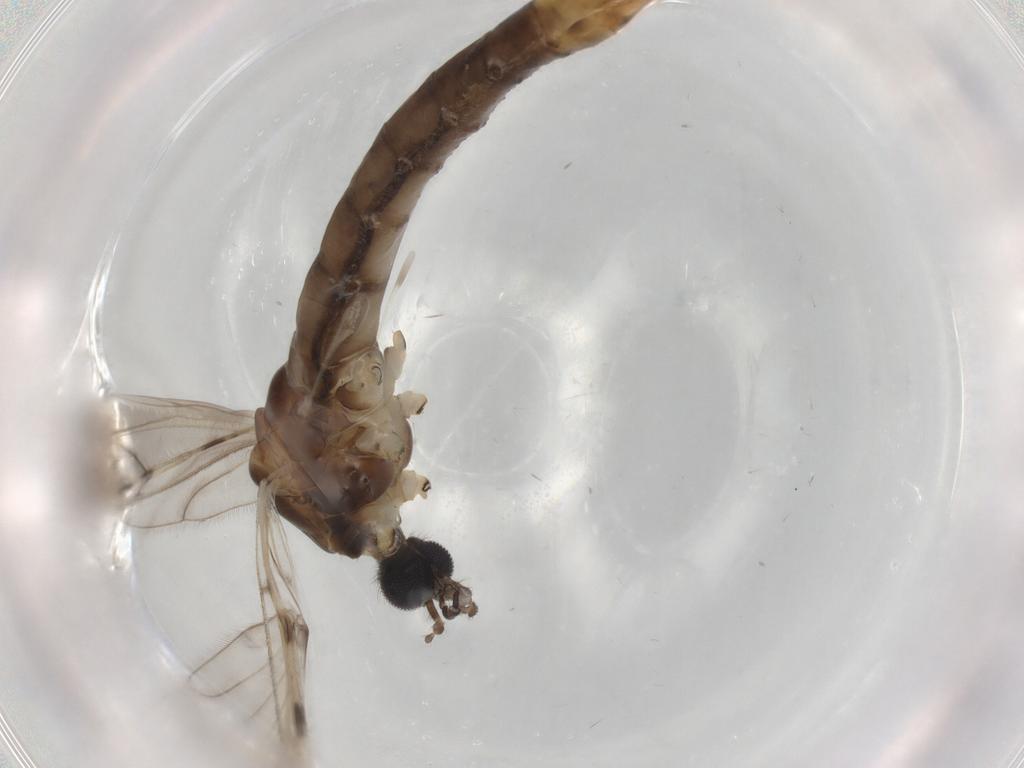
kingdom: Animalia
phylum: Arthropoda
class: Insecta
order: Diptera
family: Limoniidae
